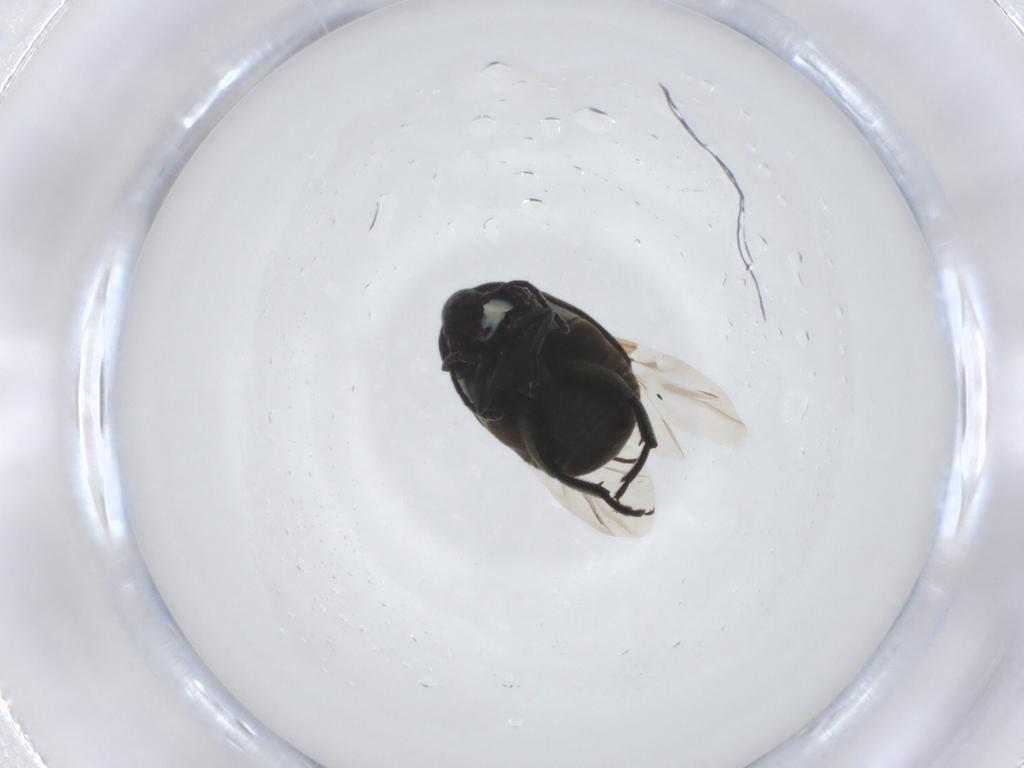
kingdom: Animalia
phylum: Arthropoda
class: Insecta
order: Coleoptera
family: Chrysomelidae
